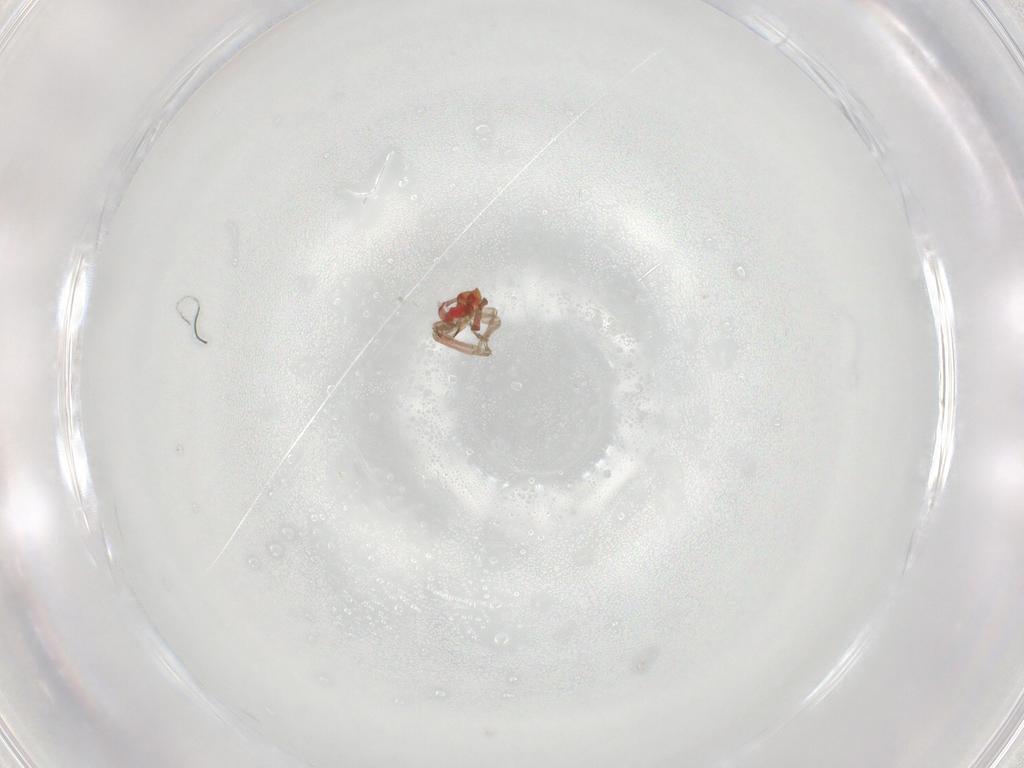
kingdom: Animalia
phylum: Arthropoda
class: Insecta
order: Hemiptera
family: Miridae
